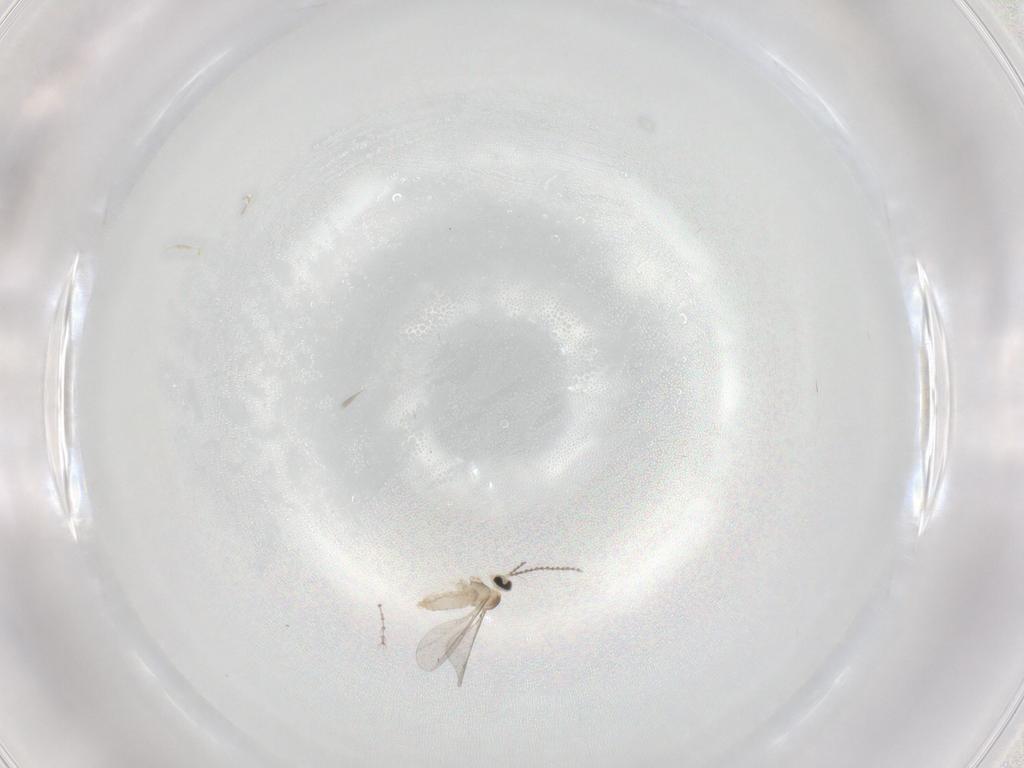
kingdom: Animalia
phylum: Arthropoda
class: Insecta
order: Diptera
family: Cecidomyiidae
